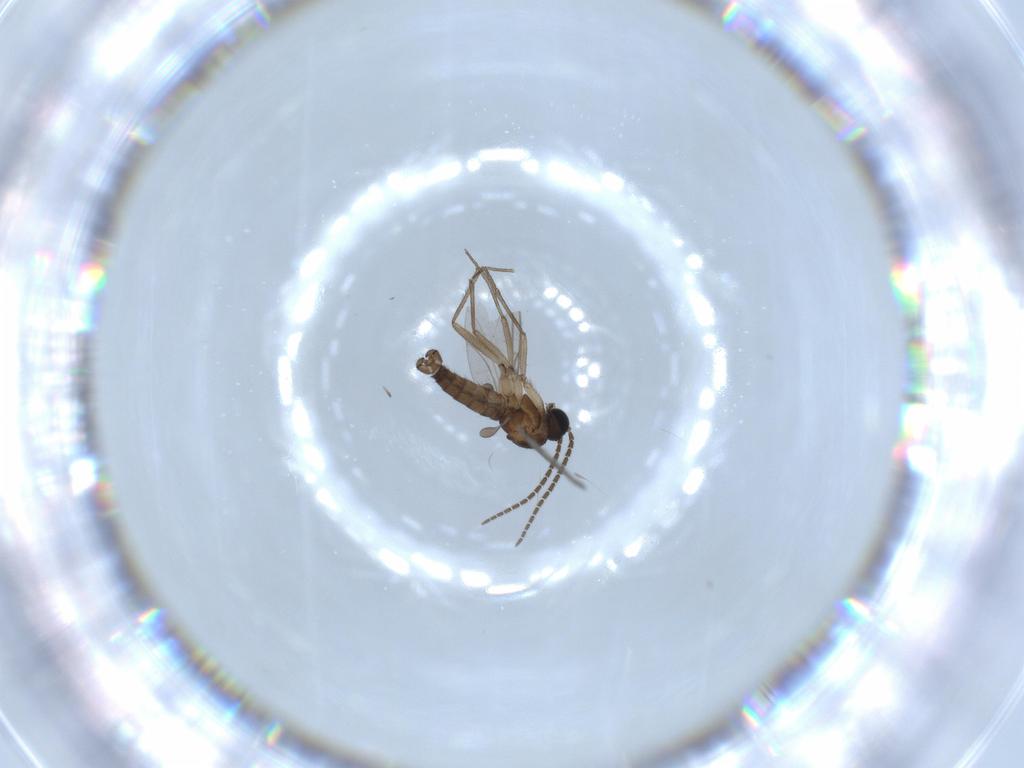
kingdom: Animalia
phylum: Arthropoda
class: Insecta
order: Diptera
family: Sciaridae
